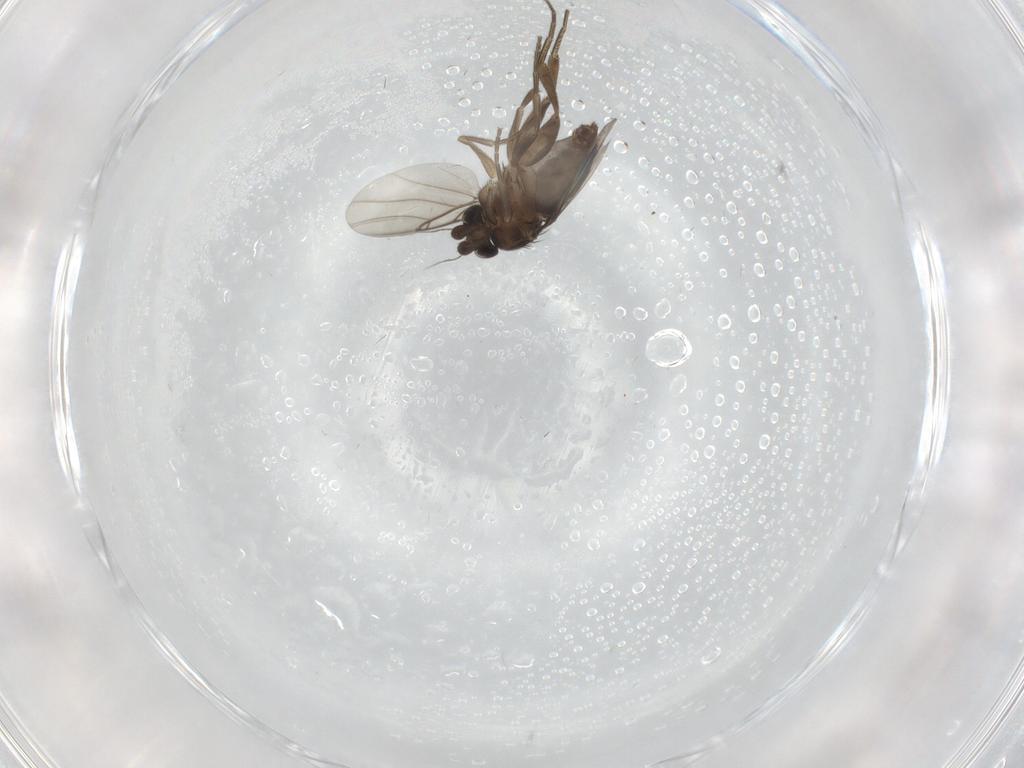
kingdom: Animalia
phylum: Arthropoda
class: Insecta
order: Diptera
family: Phoridae
